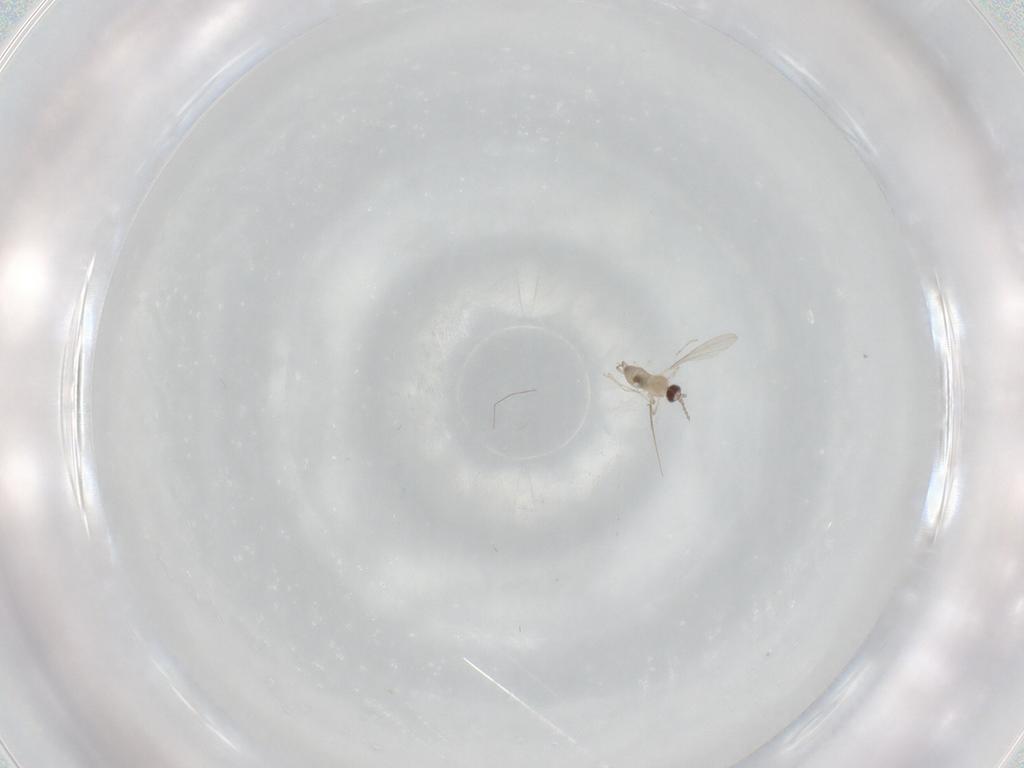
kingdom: Animalia
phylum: Arthropoda
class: Insecta
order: Diptera
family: Cecidomyiidae
